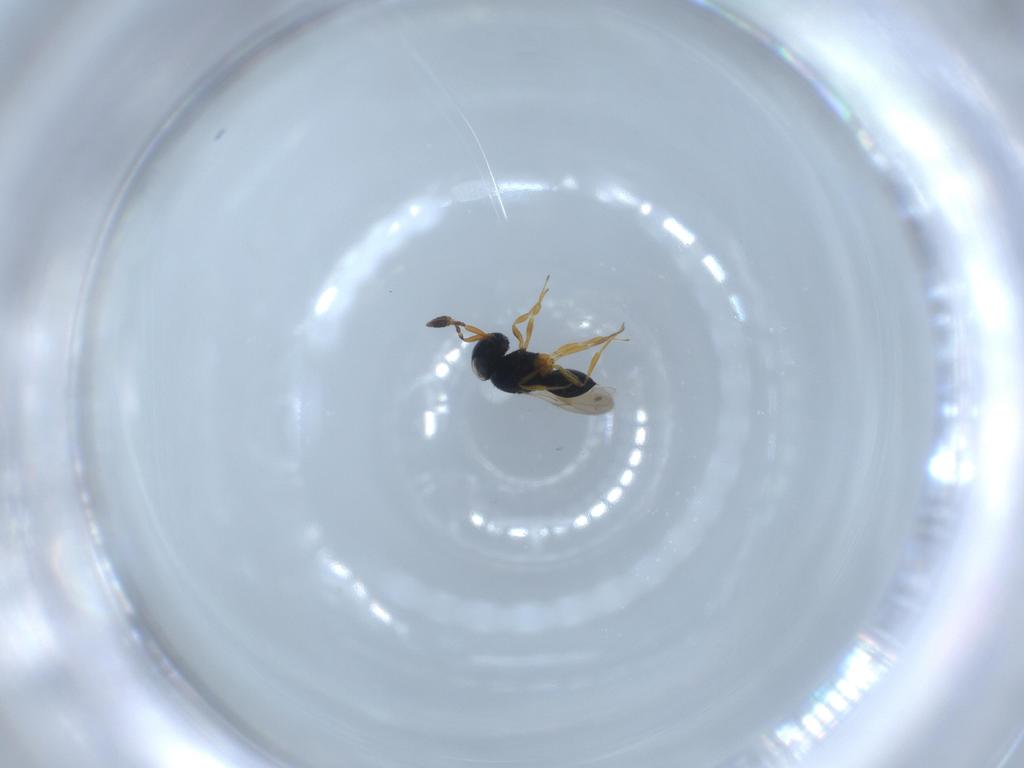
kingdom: Animalia
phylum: Arthropoda
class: Insecta
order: Hymenoptera
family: Scelionidae
